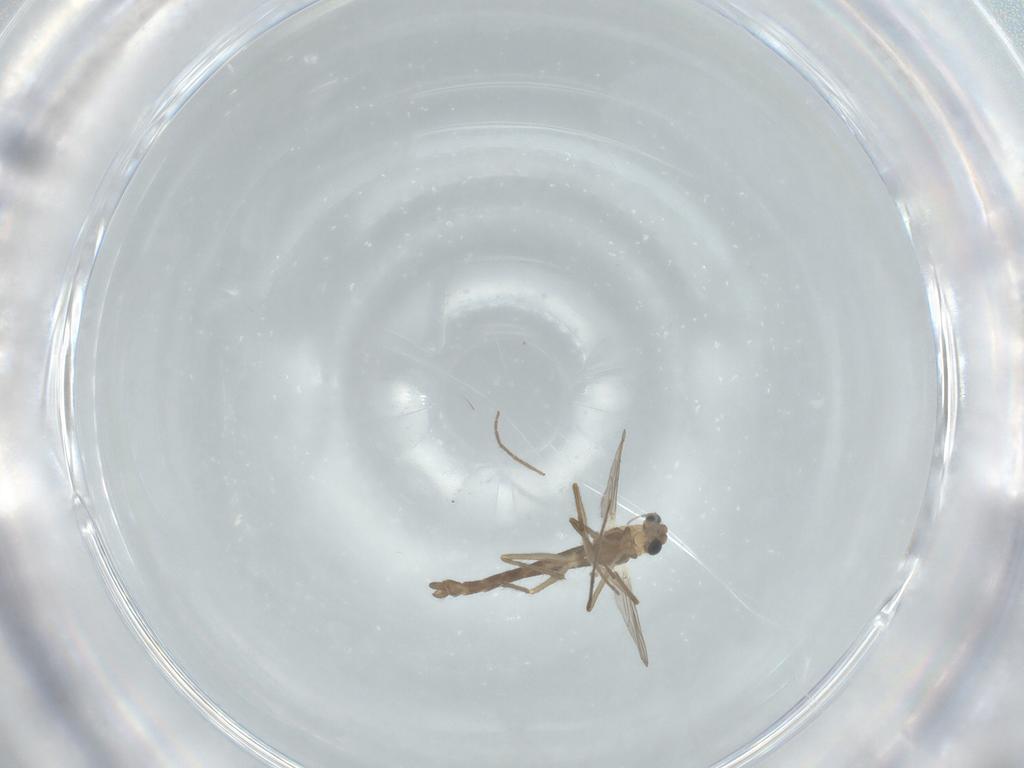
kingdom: Animalia
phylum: Arthropoda
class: Insecta
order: Diptera
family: Chironomidae
